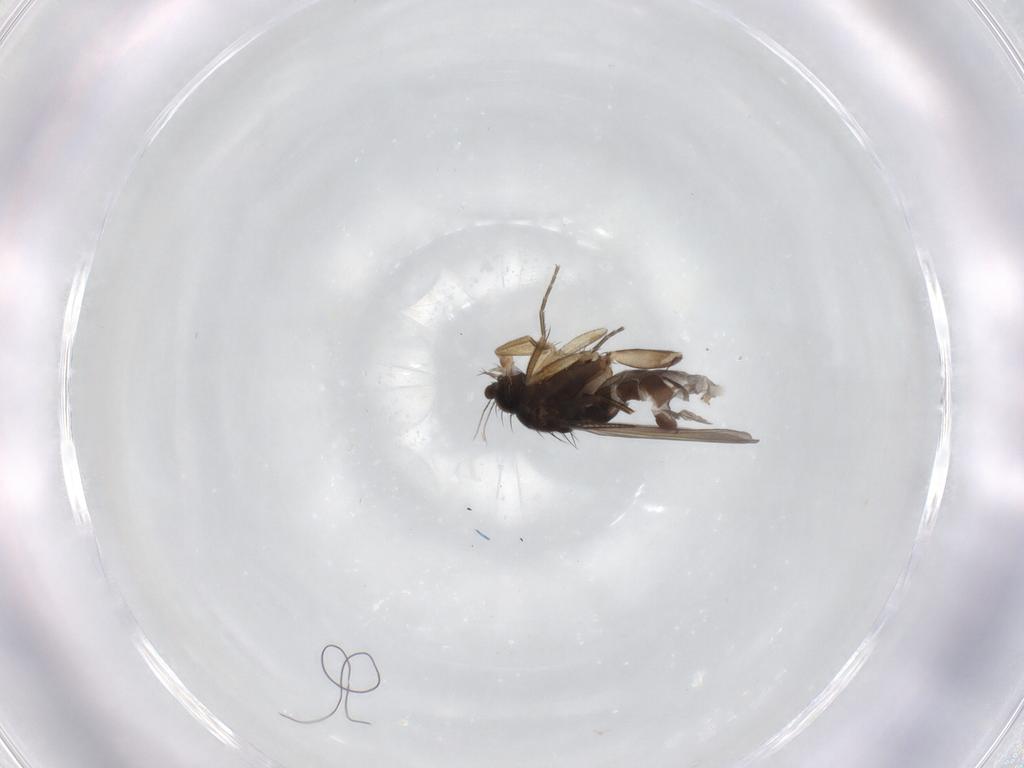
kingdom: Animalia
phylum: Arthropoda
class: Insecta
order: Diptera
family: Phoridae
